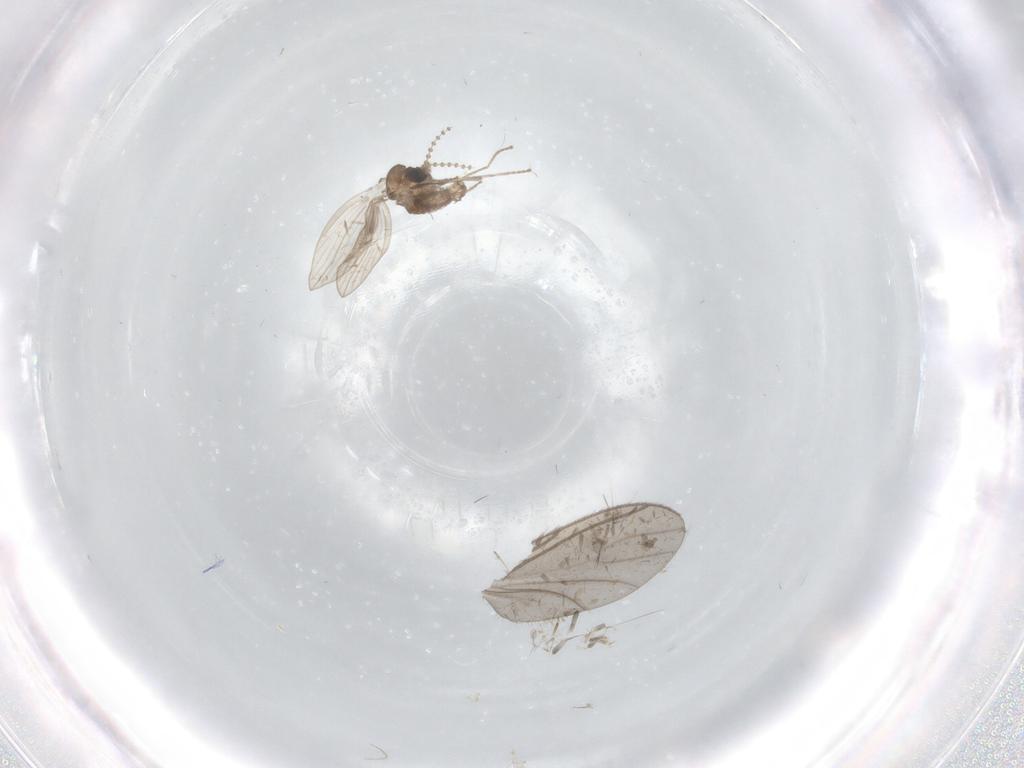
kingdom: Animalia
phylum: Arthropoda
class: Insecta
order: Diptera
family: Psychodidae
